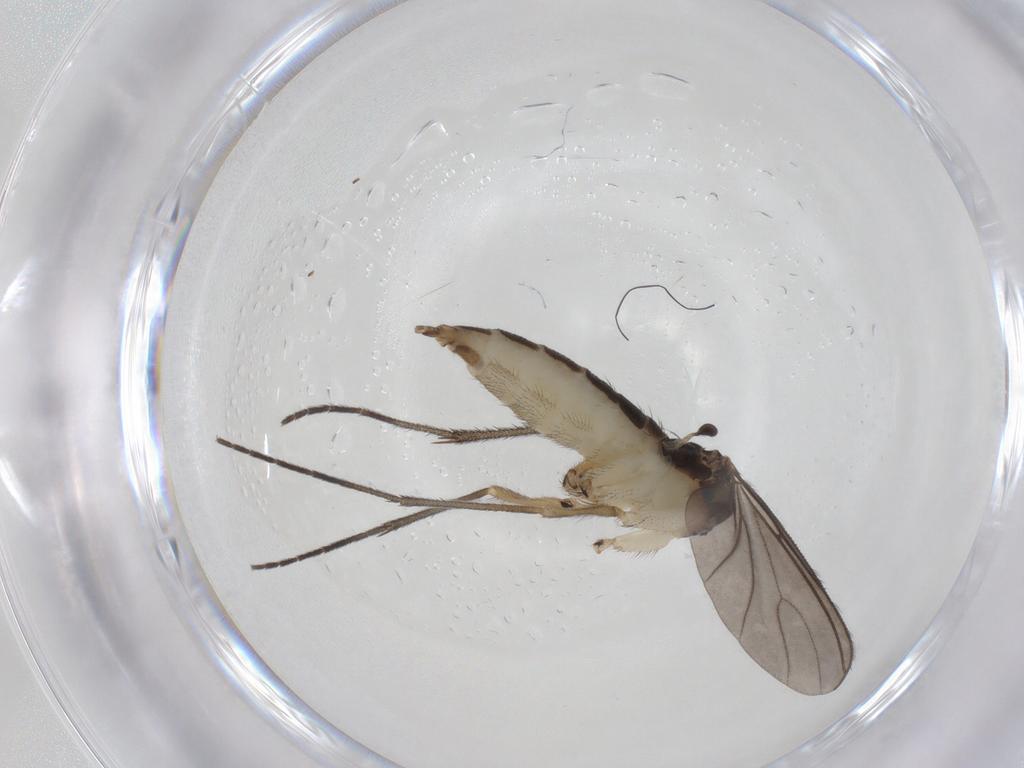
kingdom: Animalia
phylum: Arthropoda
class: Insecta
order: Diptera
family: Sciaridae
